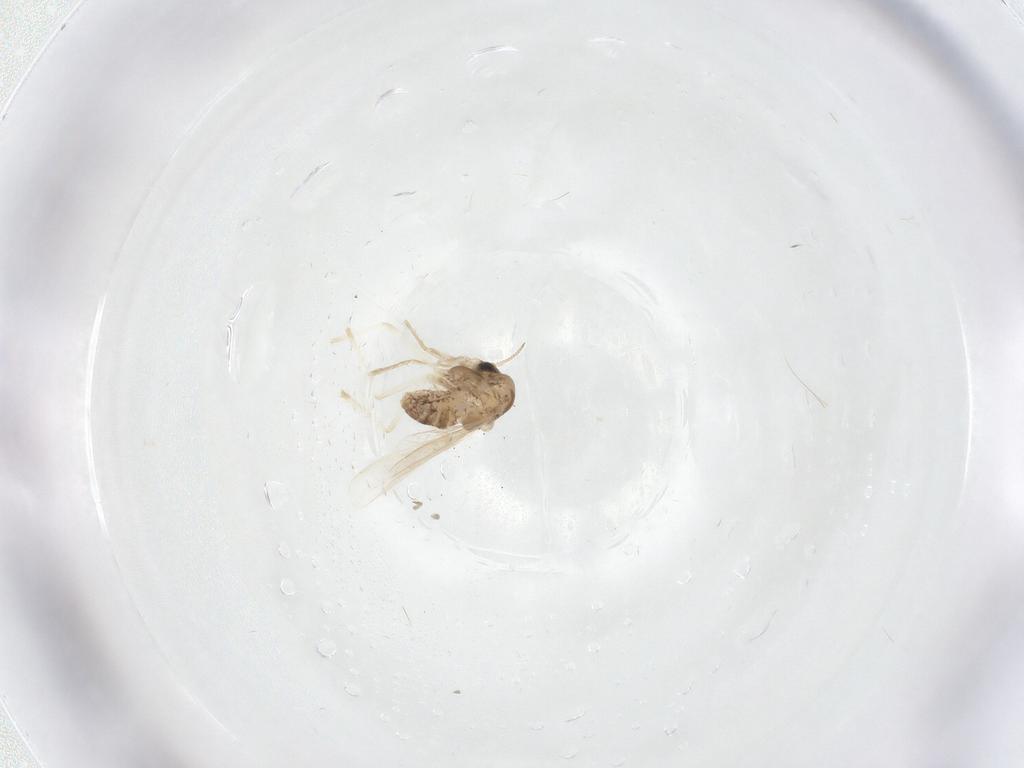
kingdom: Animalia
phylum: Arthropoda
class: Insecta
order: Diptera
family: Chironomidae
